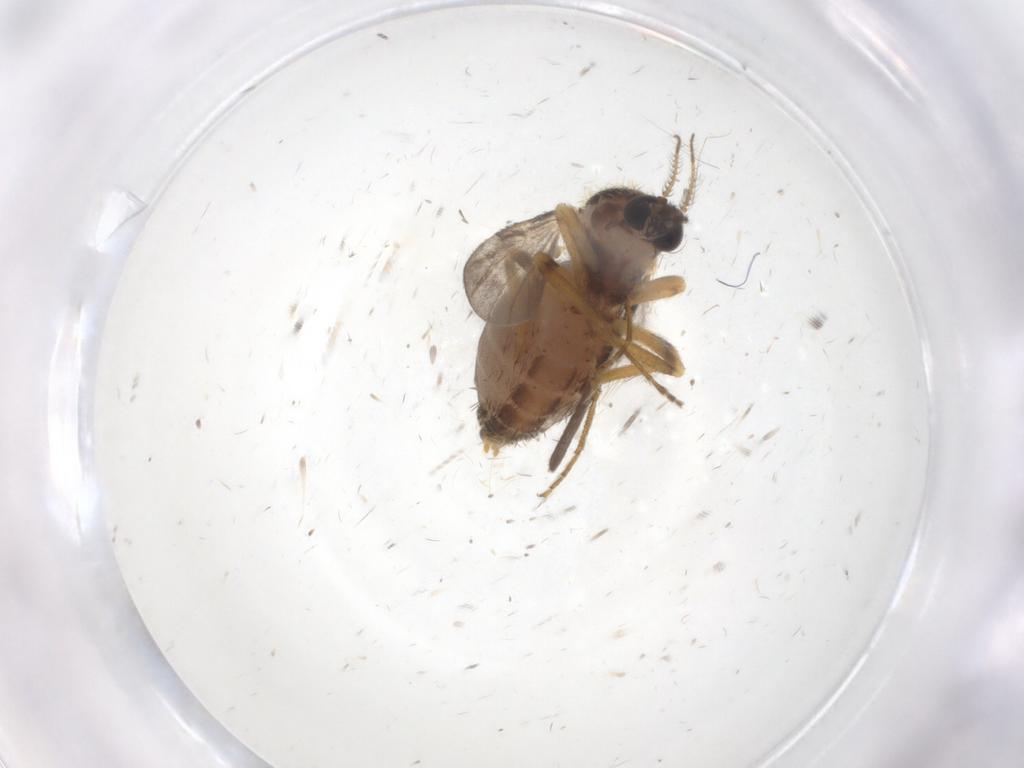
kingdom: Animalia
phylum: Arthropoda
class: Insecta
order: Diptera
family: Ceratopogonidae
